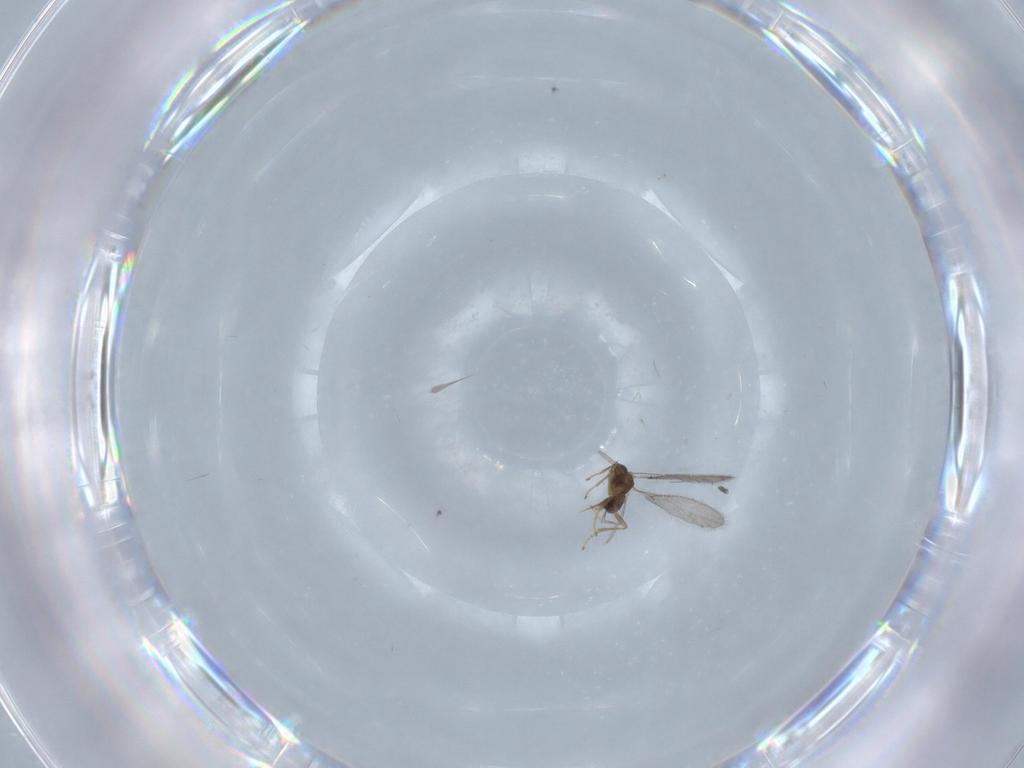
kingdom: Animalia
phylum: Arthropoda
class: Insecta
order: Hymenoptera
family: Braconidae
